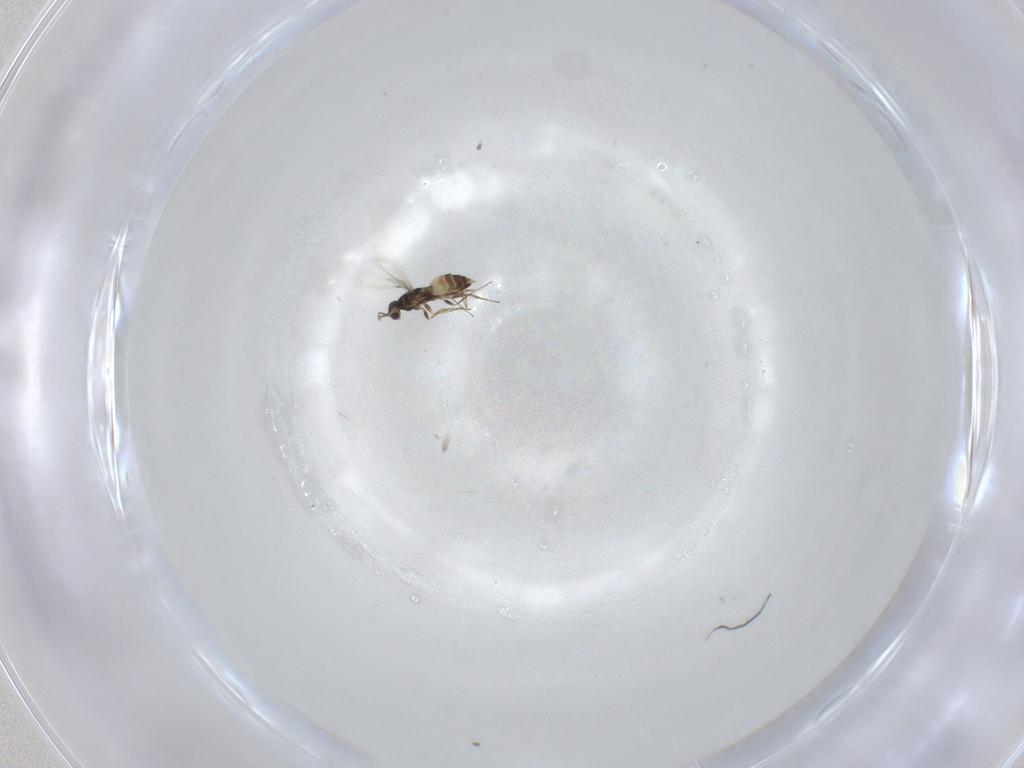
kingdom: Animalia
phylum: Arthropoda
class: Insecta
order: Hymenoptera
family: Mymaridae
